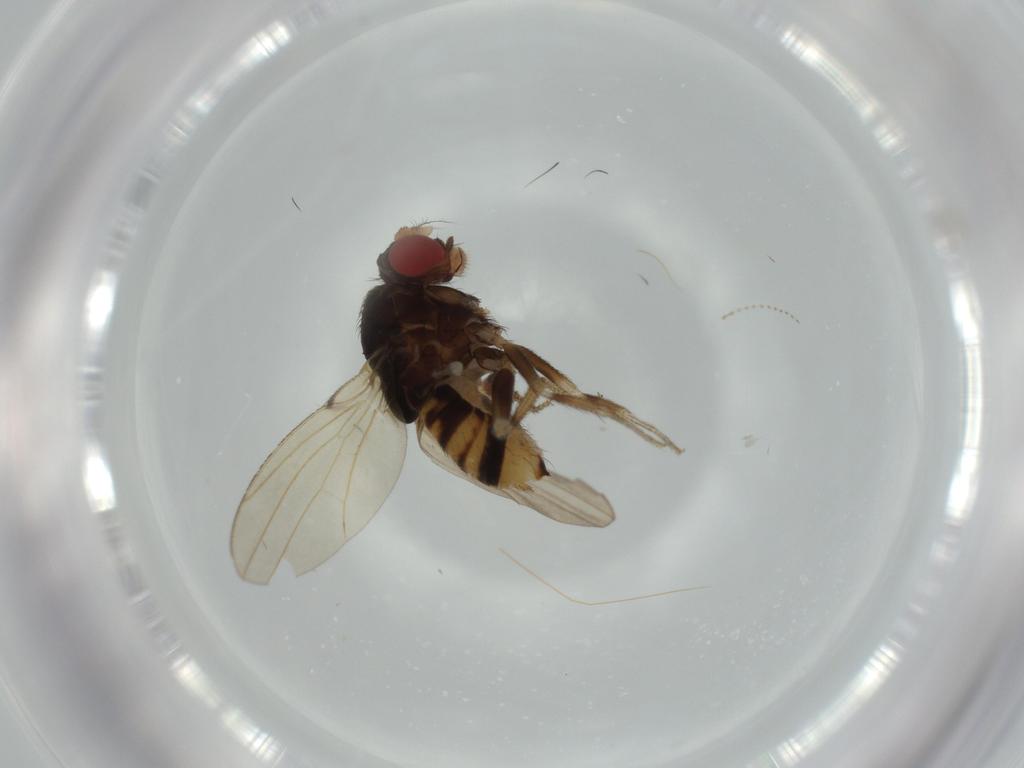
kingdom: Animalia
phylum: Arthropoda
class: Insecta
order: Diptera
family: Drosophilidae
